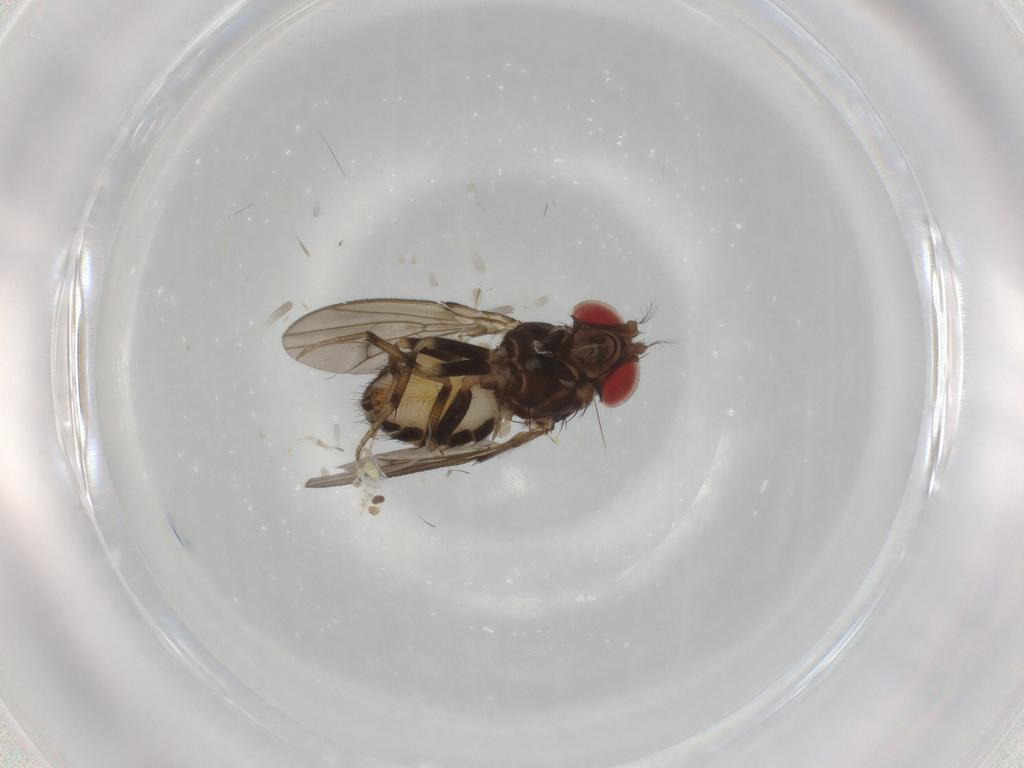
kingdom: Animalia
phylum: Arthropoda
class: Insecta
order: Diptera
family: Drosophilidae
